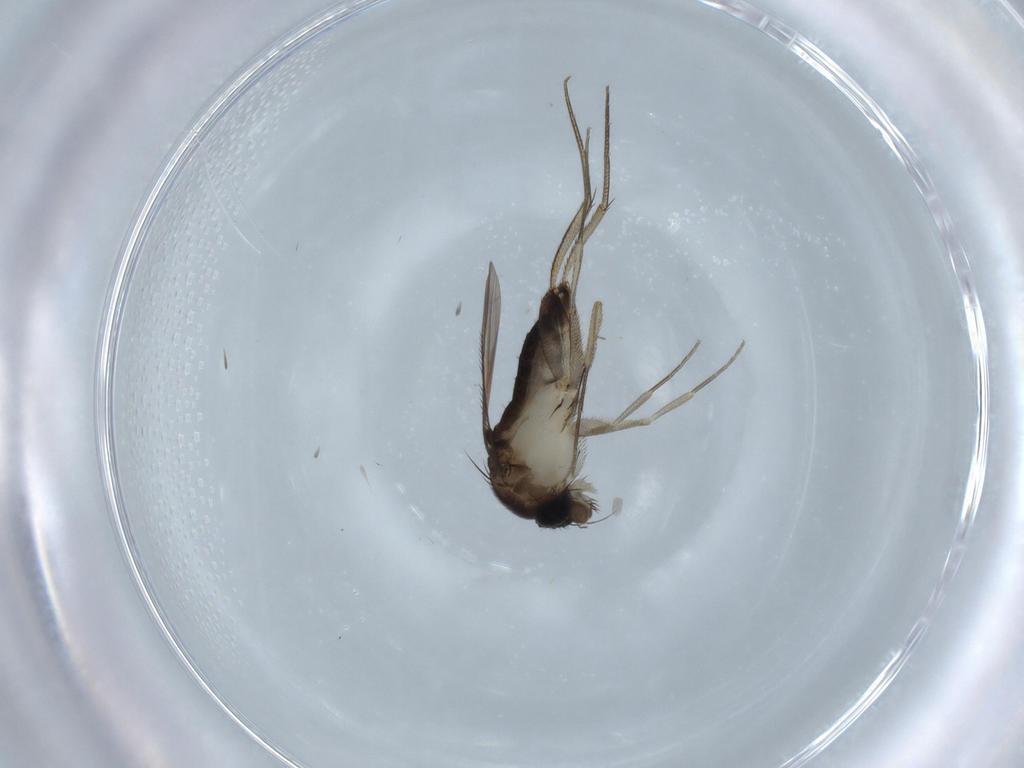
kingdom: Animalia
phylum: Arthropoda
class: Insecta
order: Diptera
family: Phoridae
